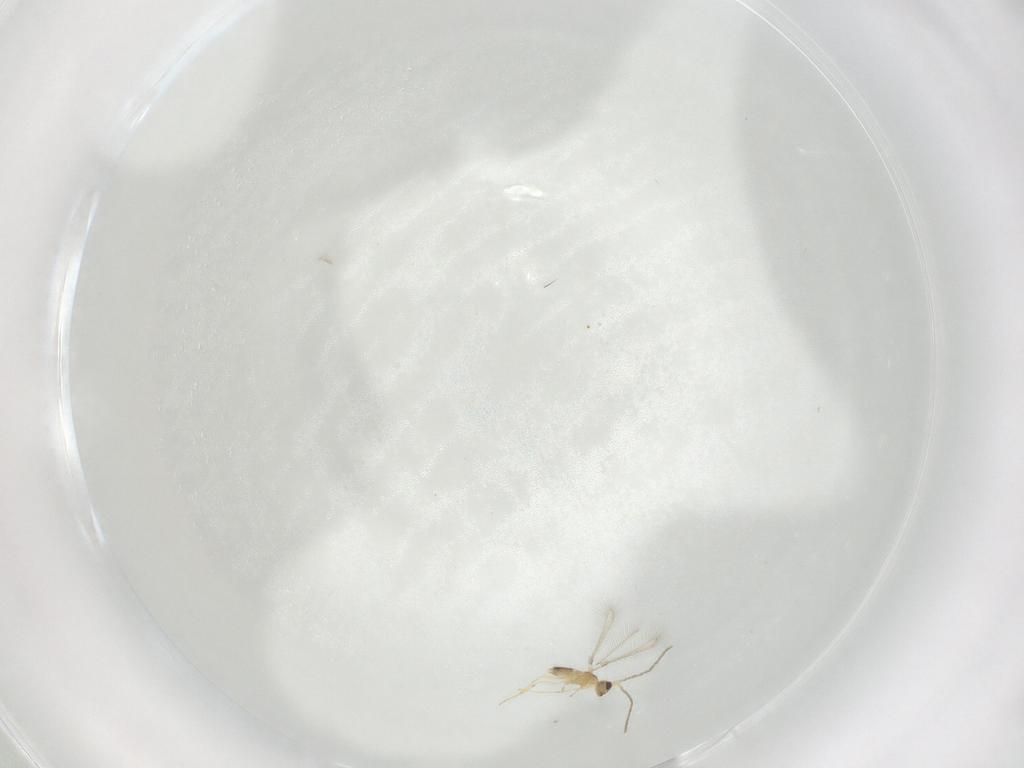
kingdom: Animalia
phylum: Arthropoda
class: Insecta
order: Hymenoptera
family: Mymaridae
